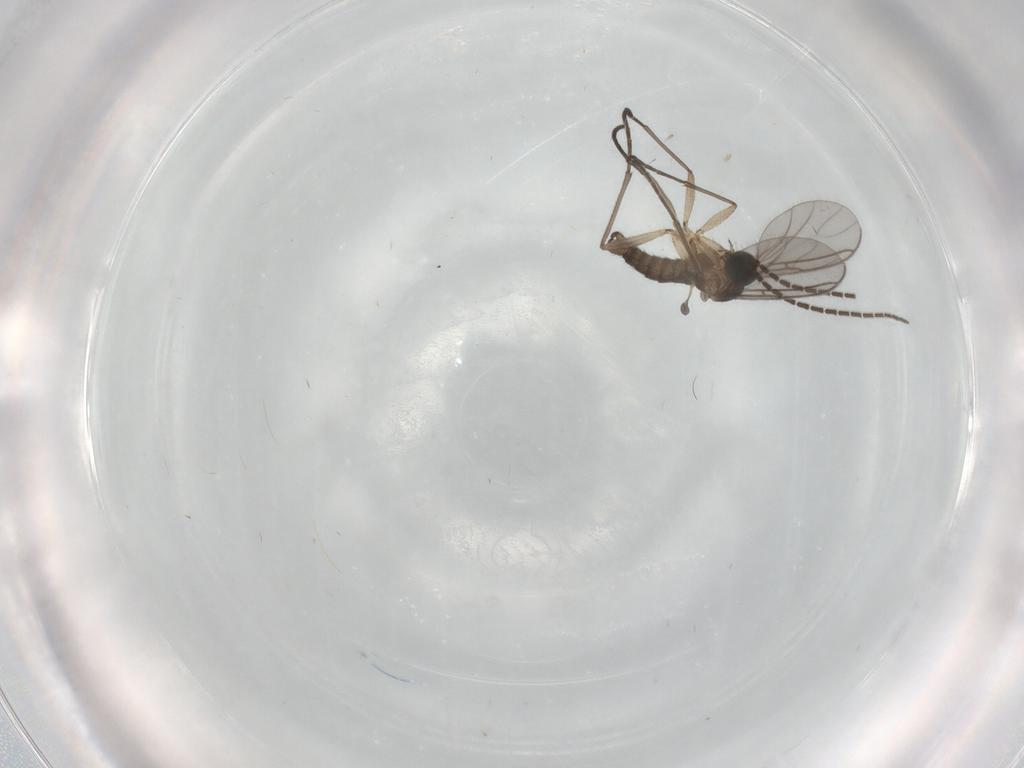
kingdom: Animalia
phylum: Arthropoda
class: Insecta
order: Diptera
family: Sciaridae
